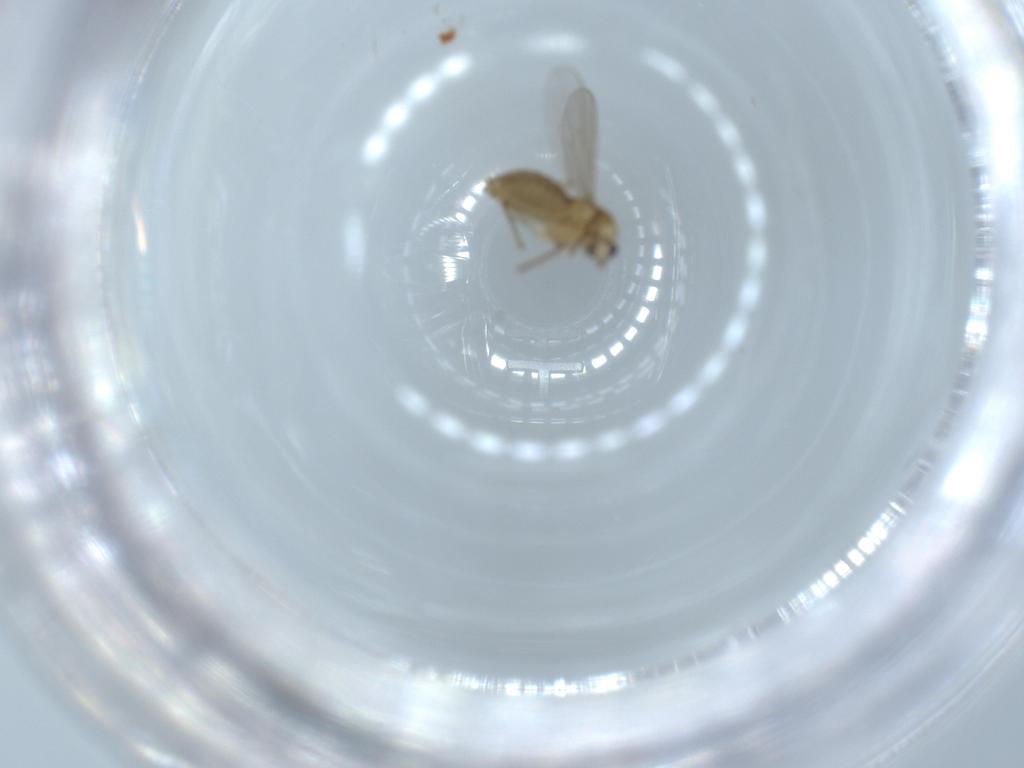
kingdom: Animalia
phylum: Arthropoda
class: Insecta
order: Diptera
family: Chironomidae
